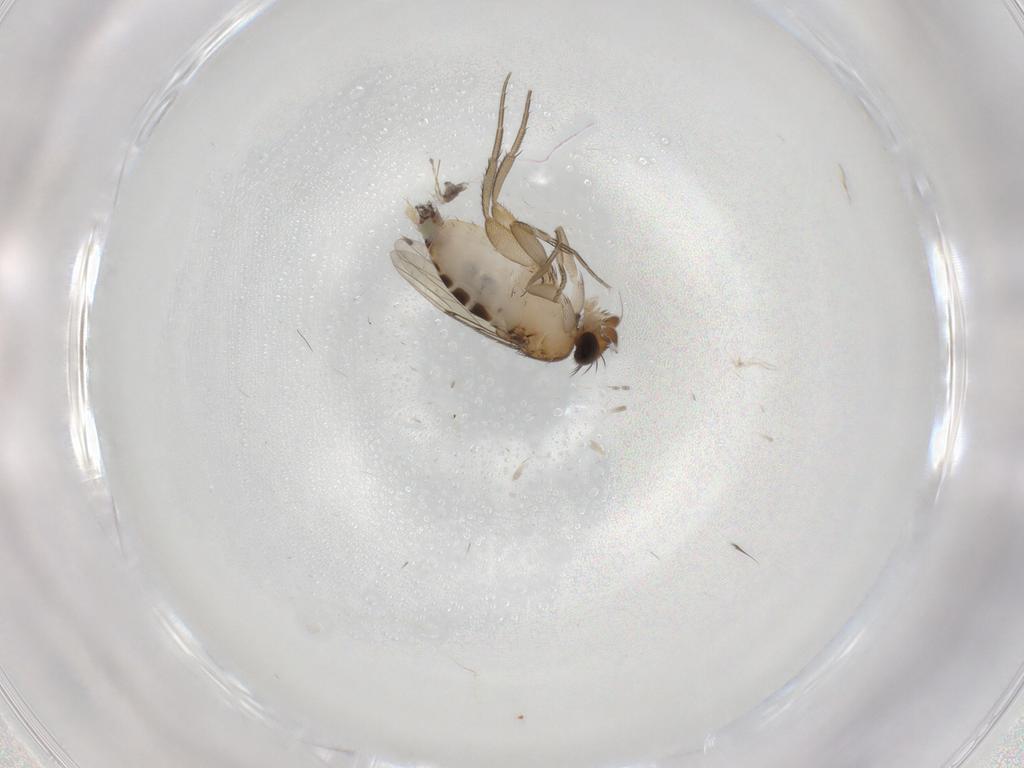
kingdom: Animalia
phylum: Arthropoda
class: Insecta
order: Diptera
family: Phoridae
